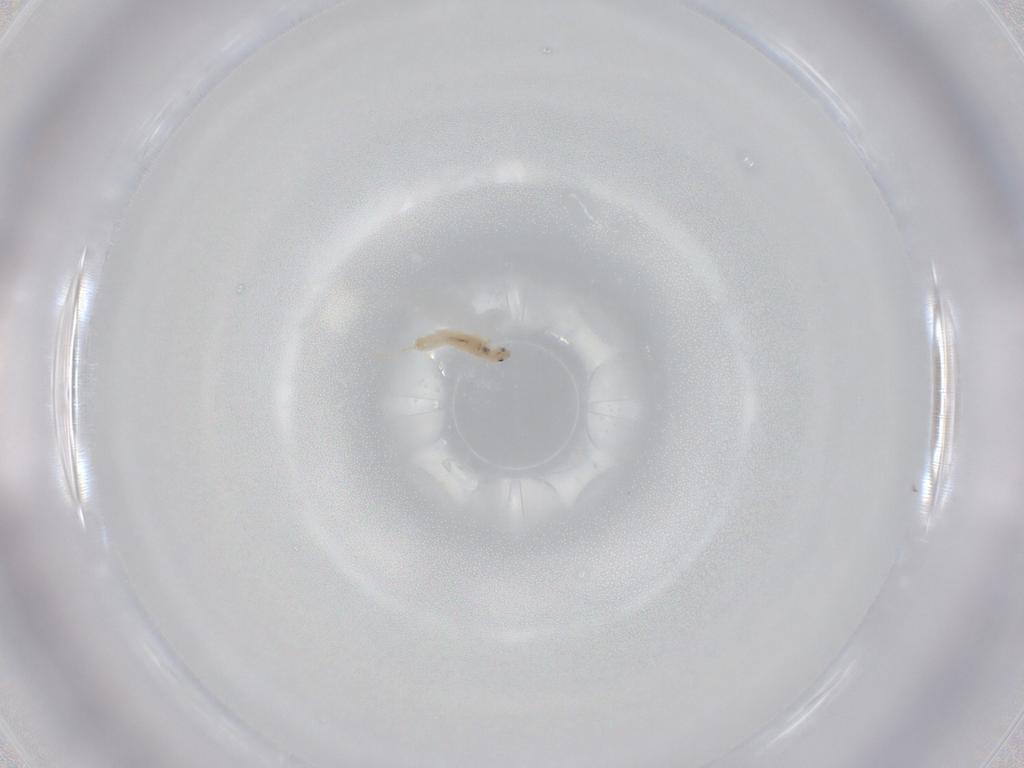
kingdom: Animalia
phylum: Arthropoda
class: Collembola
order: Entomobryomorpha
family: Entomobryidae
